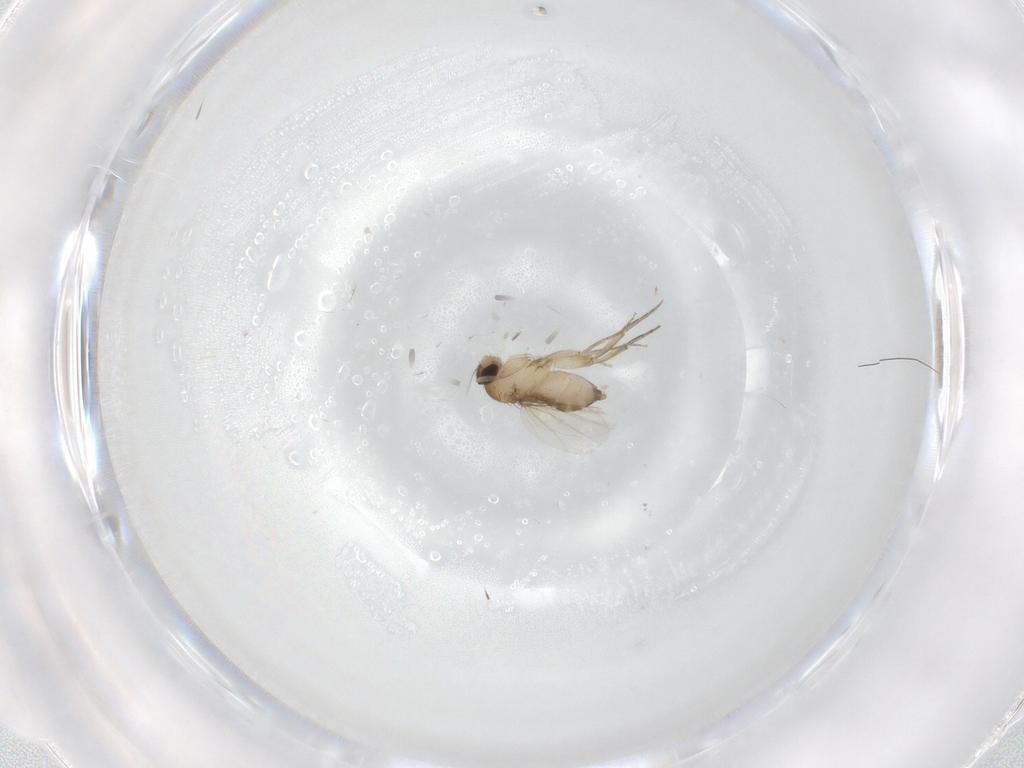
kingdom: Animalia
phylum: Arthropoda
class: Insecta
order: Diptera
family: Phoridae
